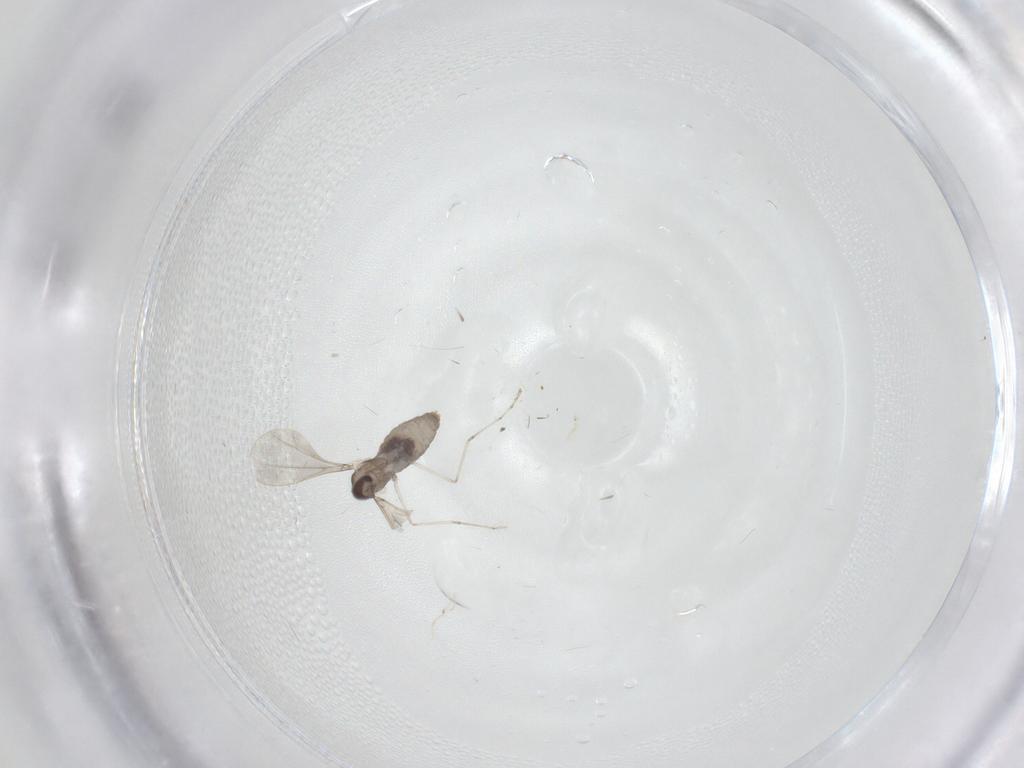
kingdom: Animalia
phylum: Arthropoda
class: Insecta
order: Diptera
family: Cecidomyiidae
